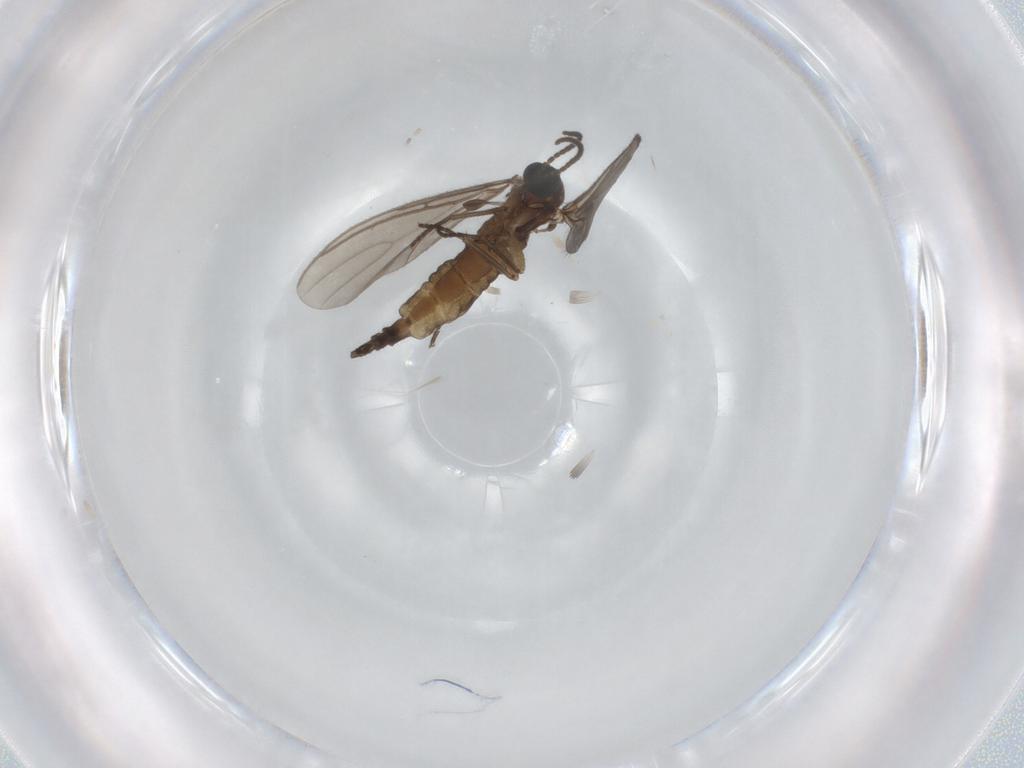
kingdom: Animalia
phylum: Arthropoda
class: Insecta
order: Diptera
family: Sciaridae
